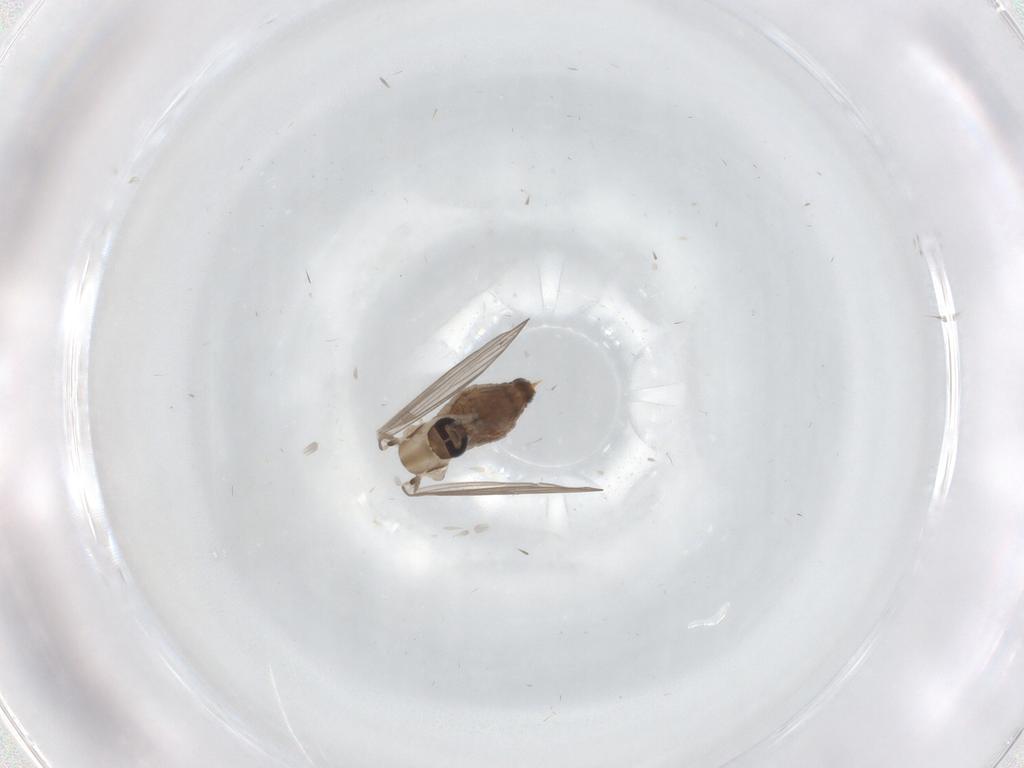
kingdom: Animalia
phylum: Arthropoda
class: Insecta
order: Diptera
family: Psychodidae
